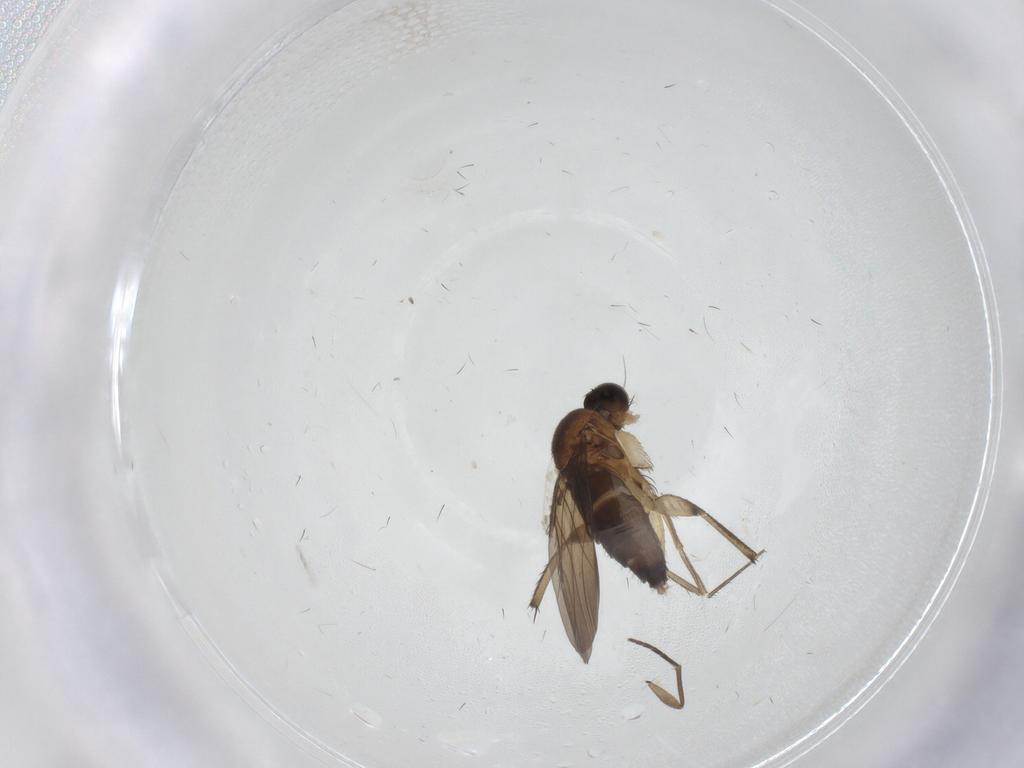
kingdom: Animalia
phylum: Arthropoda
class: Insecta
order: Diptera
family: Phoridae
